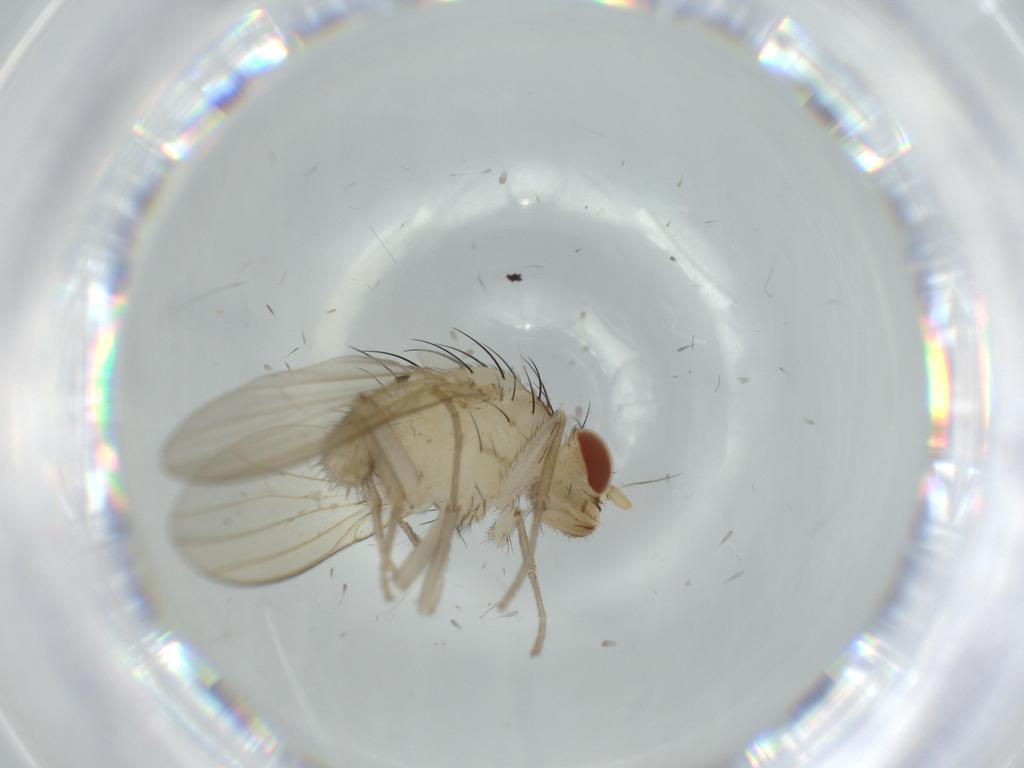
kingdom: Animalia
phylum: Arthropoda
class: Insecta
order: Diptera
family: Lauxaniidae
